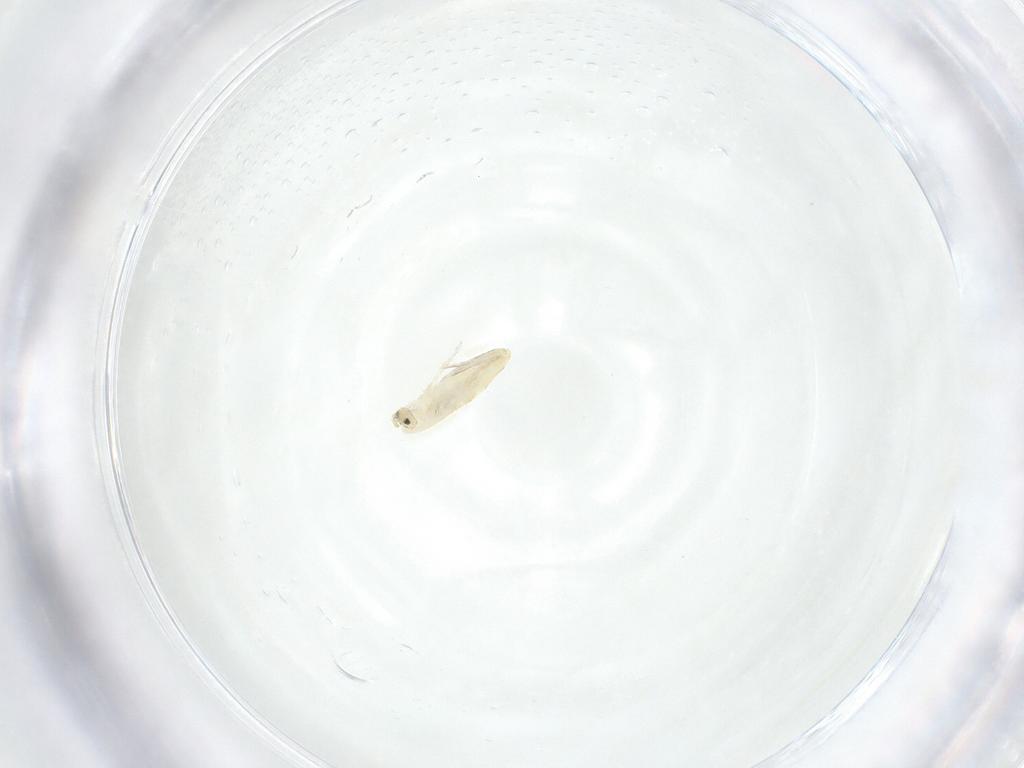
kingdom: Animalia
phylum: Arthropoda
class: Collembola
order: Entomobryomorpha
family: Entomobryidae
